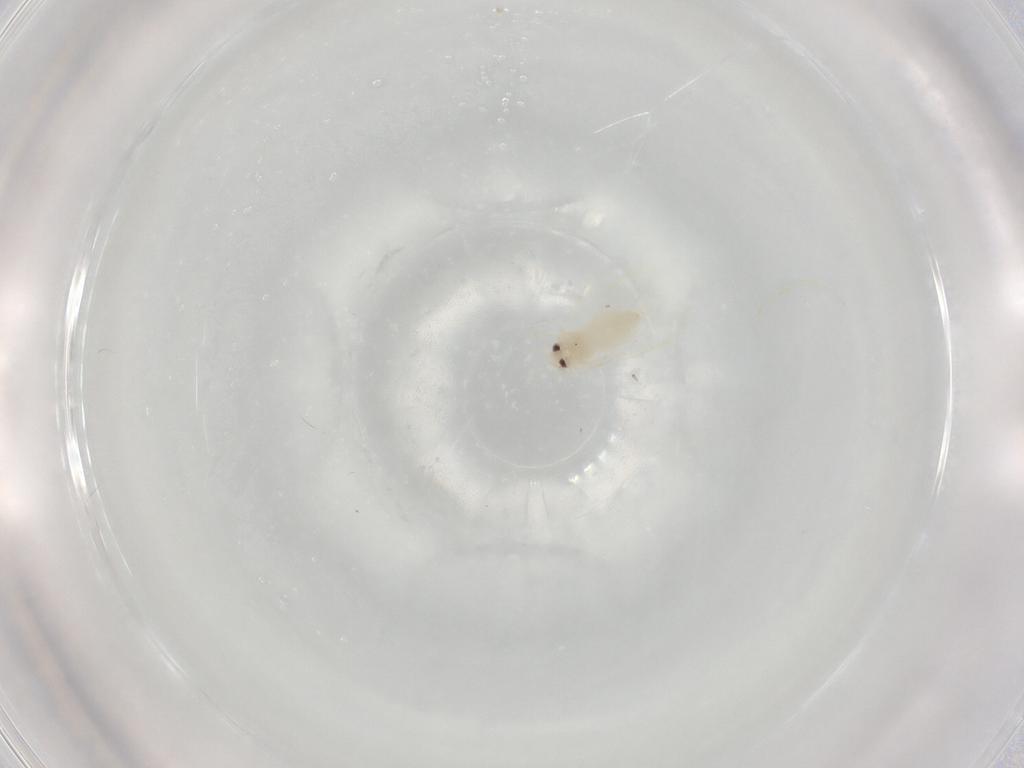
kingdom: Animalia
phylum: Arthropoda
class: Insecta
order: Hemiptera
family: Aleyrodidae
